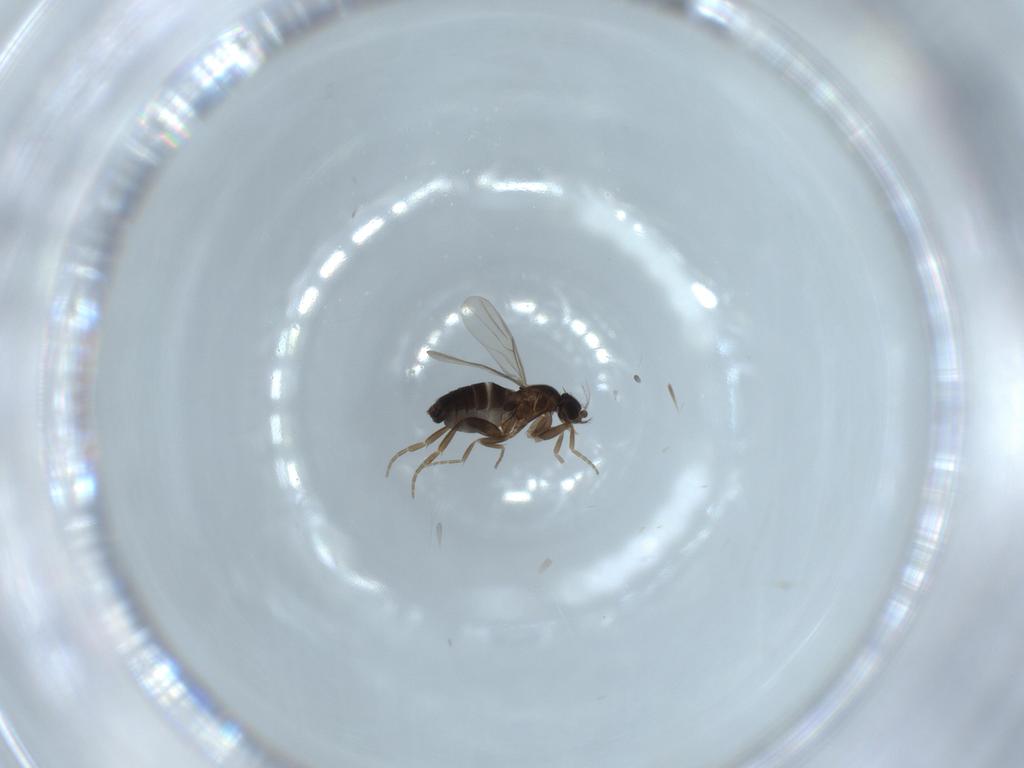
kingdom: Animalia
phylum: Arthropoda
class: Insecta
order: Diptera
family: Phoridae
